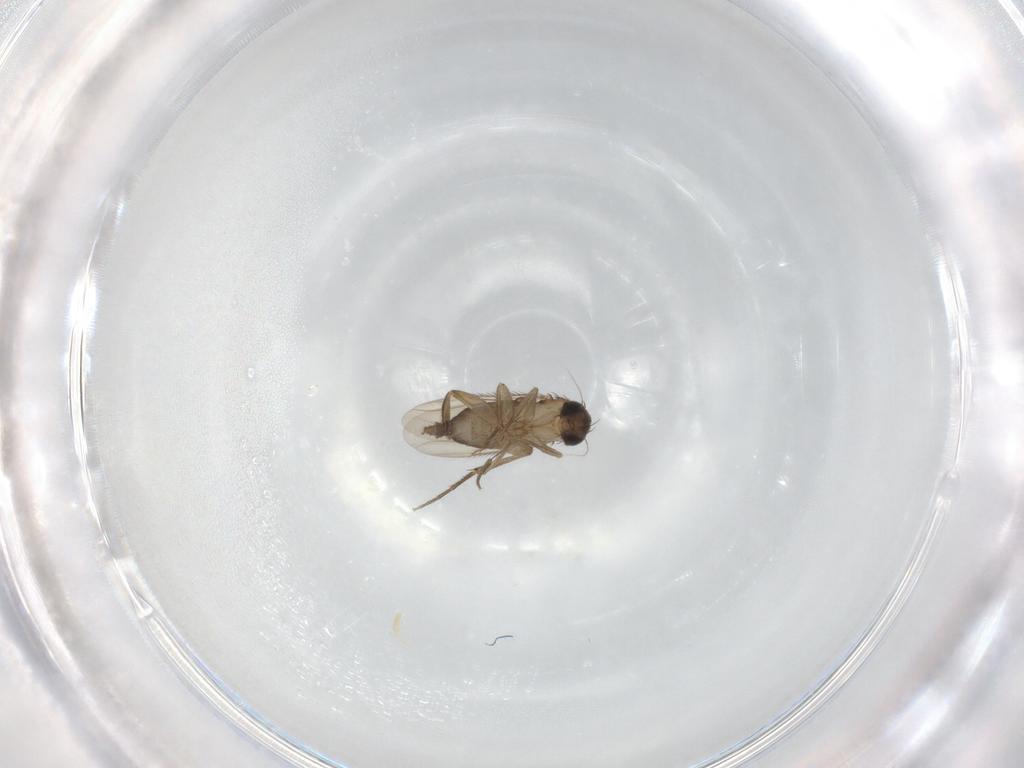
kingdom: Animalia
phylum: Arthropoda
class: Insecta
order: Diptera
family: Phoridae
